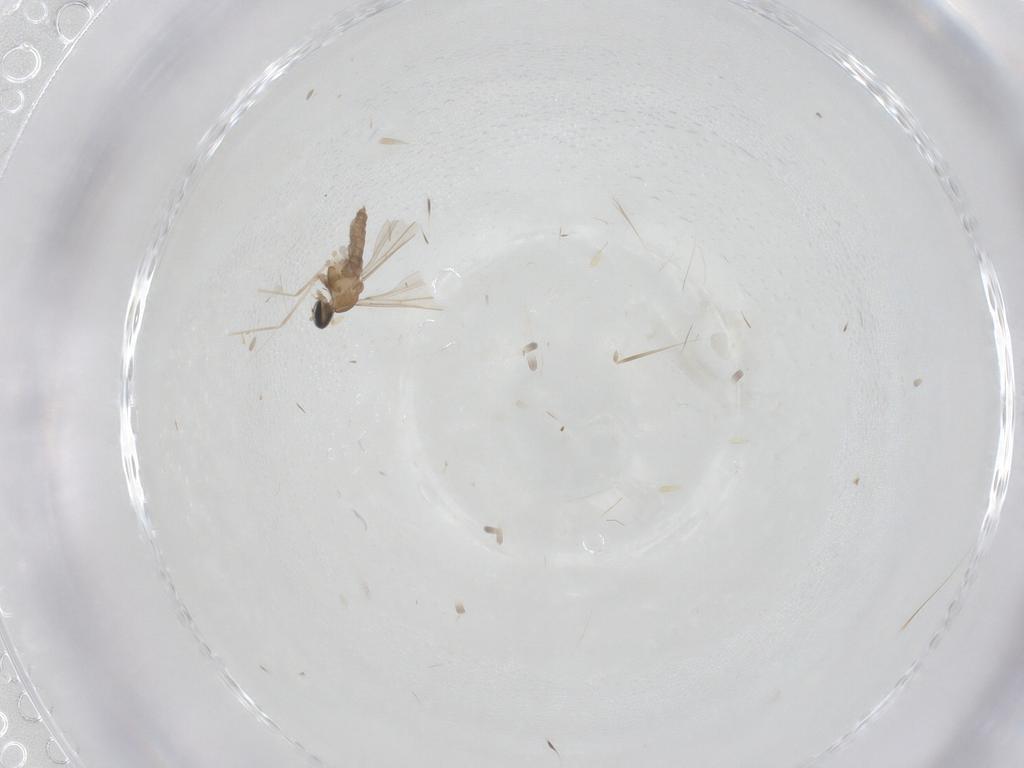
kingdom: Animalia
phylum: Arthropoda
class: Insecta
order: Diptera
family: Cecidomyiidae
